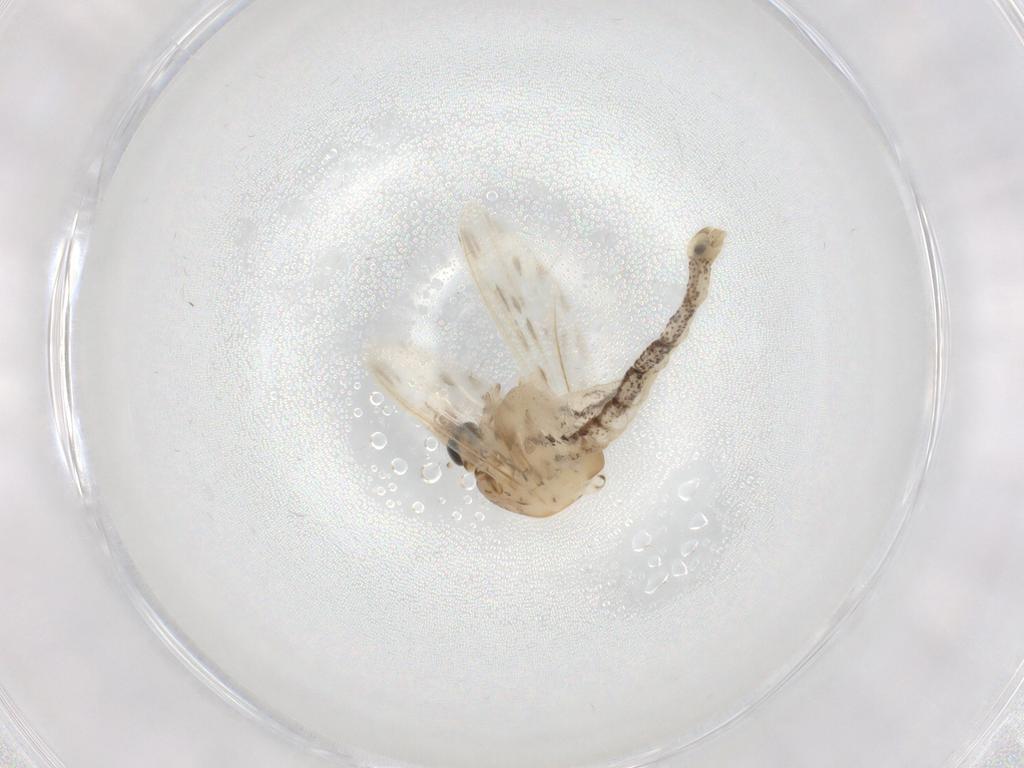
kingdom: Animalia
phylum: Arthropoda
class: Insecta
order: Diptera
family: Chaoboridae
